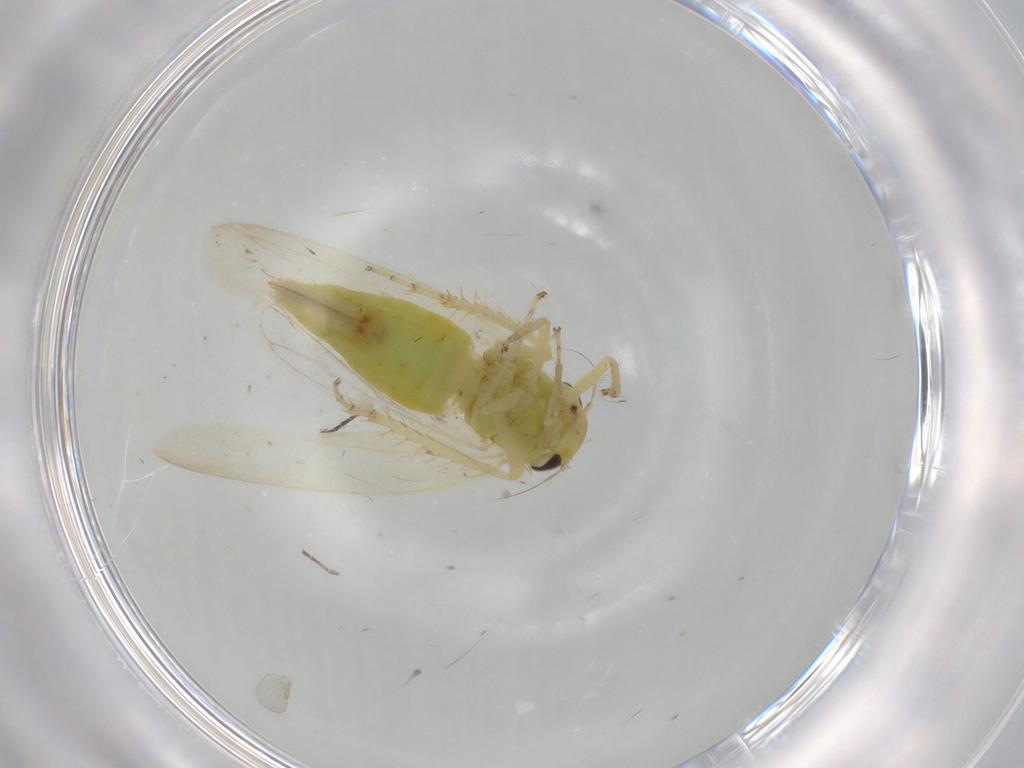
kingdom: Animalia
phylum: Arthropoda
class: Insecta
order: Hemiptera
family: Cicadellidae
